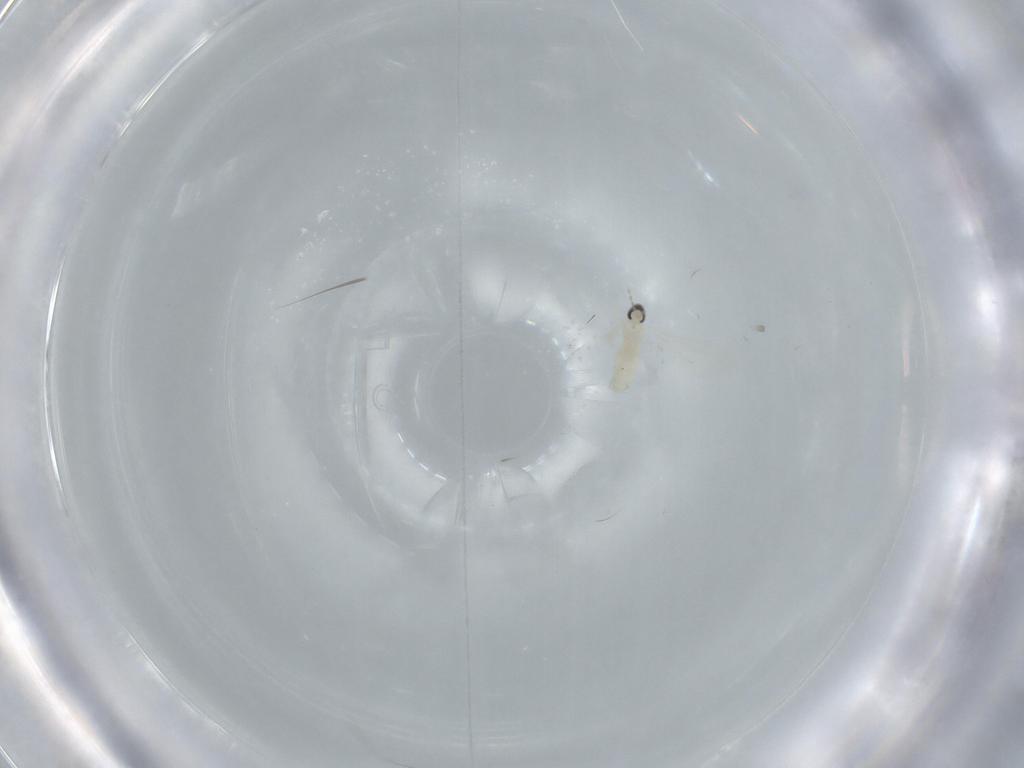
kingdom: Animalia
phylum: Arthropoda
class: Insecta
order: Diptera
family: Phoridae
